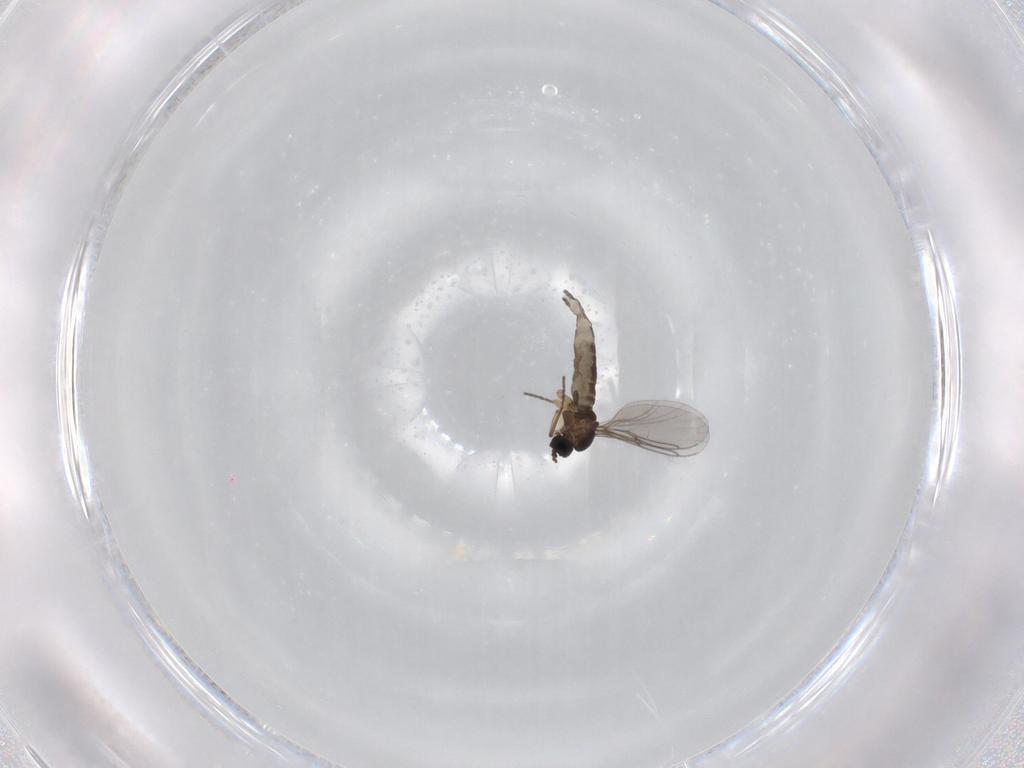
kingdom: Animalia
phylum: Arthropoda
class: Insecta
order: Diptera
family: Sciaridae
